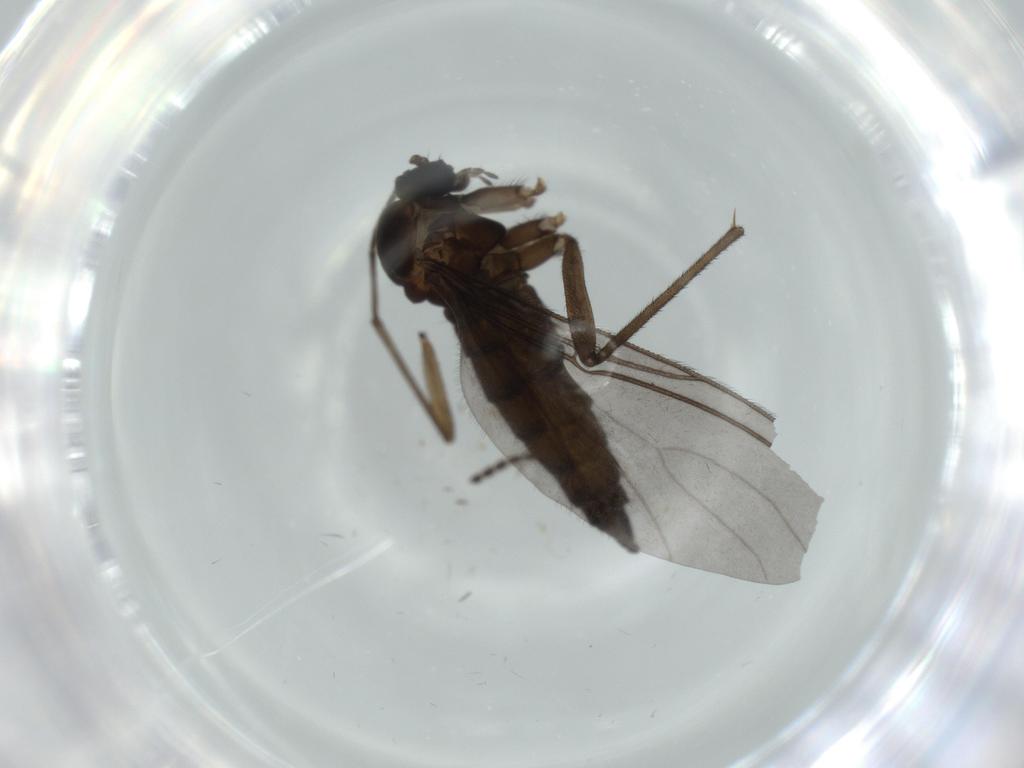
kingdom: Animalia
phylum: Arthropoda
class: Insecta
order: Diptera
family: Sciaridae
